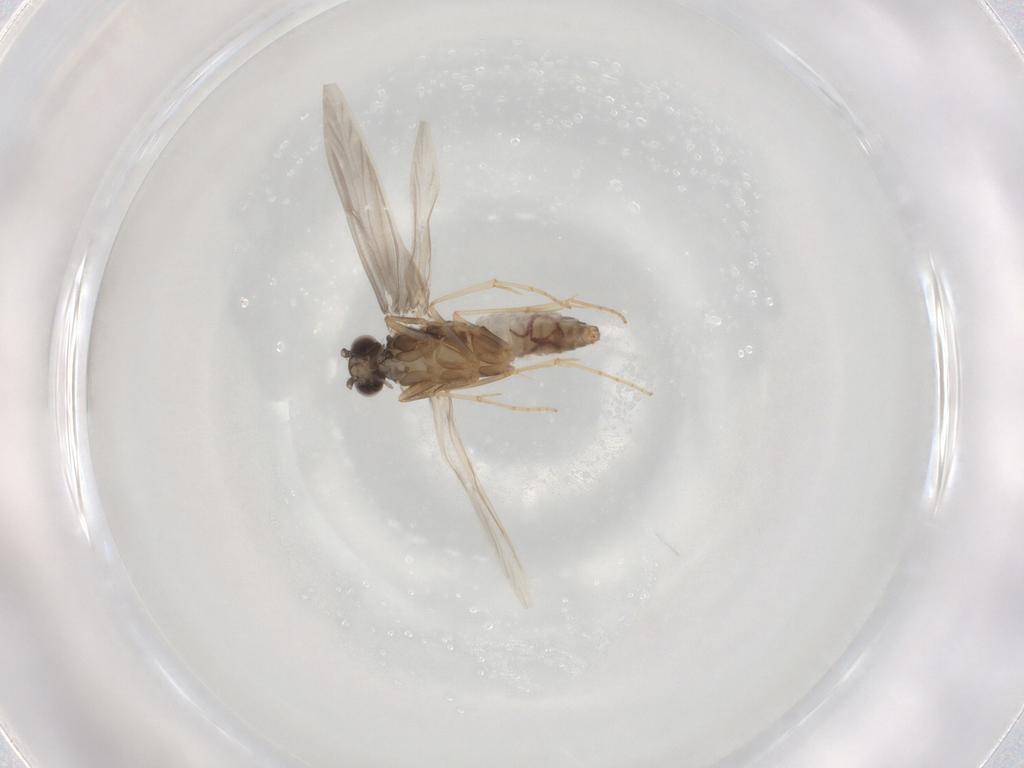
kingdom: Animalia
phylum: Arthropoda
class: Insecta
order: Trichoptera
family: Hydroptilidae
